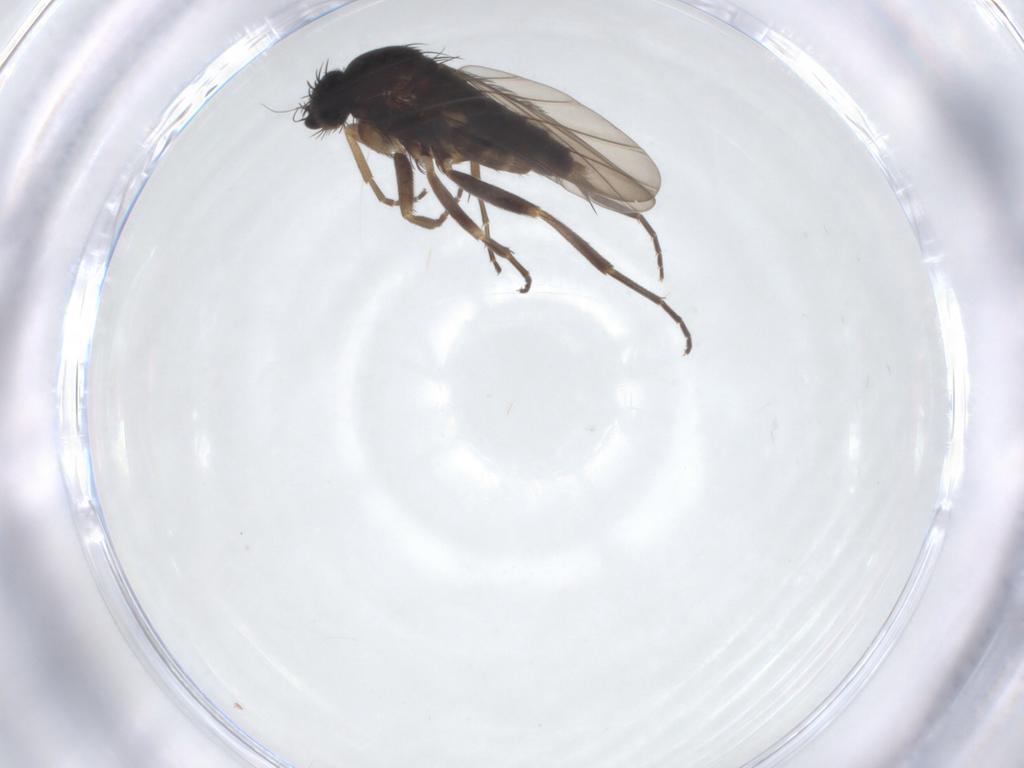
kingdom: Animalia
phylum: Arthropoda
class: Insecta
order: Diptera
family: Phoridae
